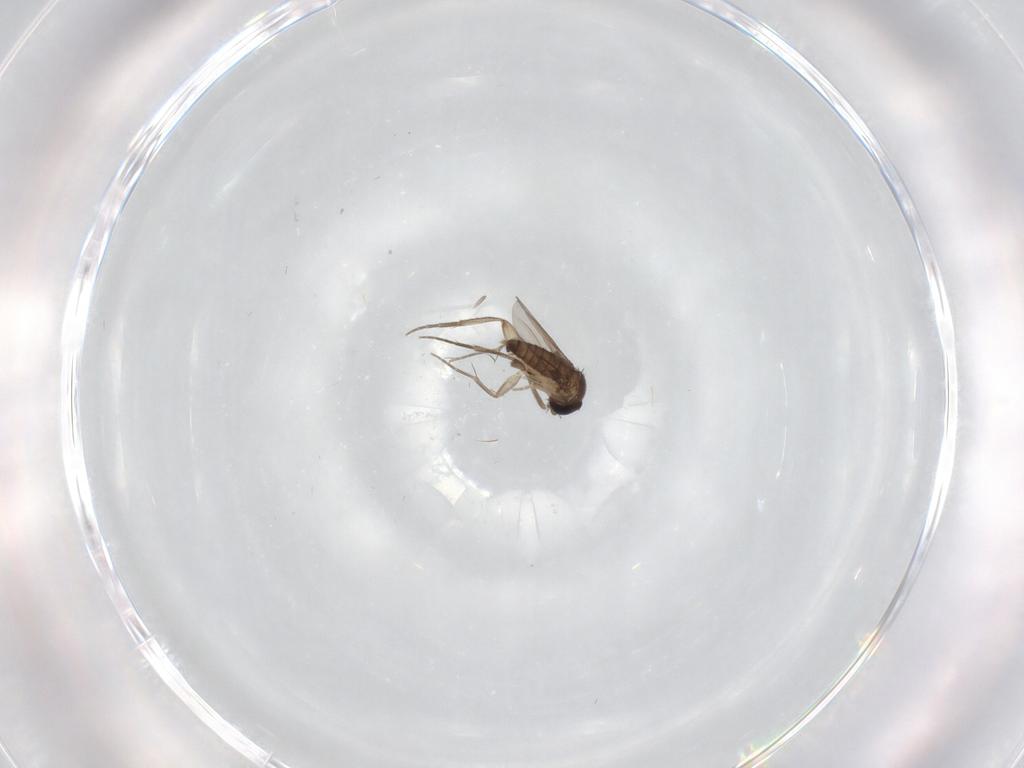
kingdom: Animalia
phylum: Arthropoda
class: Insecta
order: Diptera
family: Phoridae
